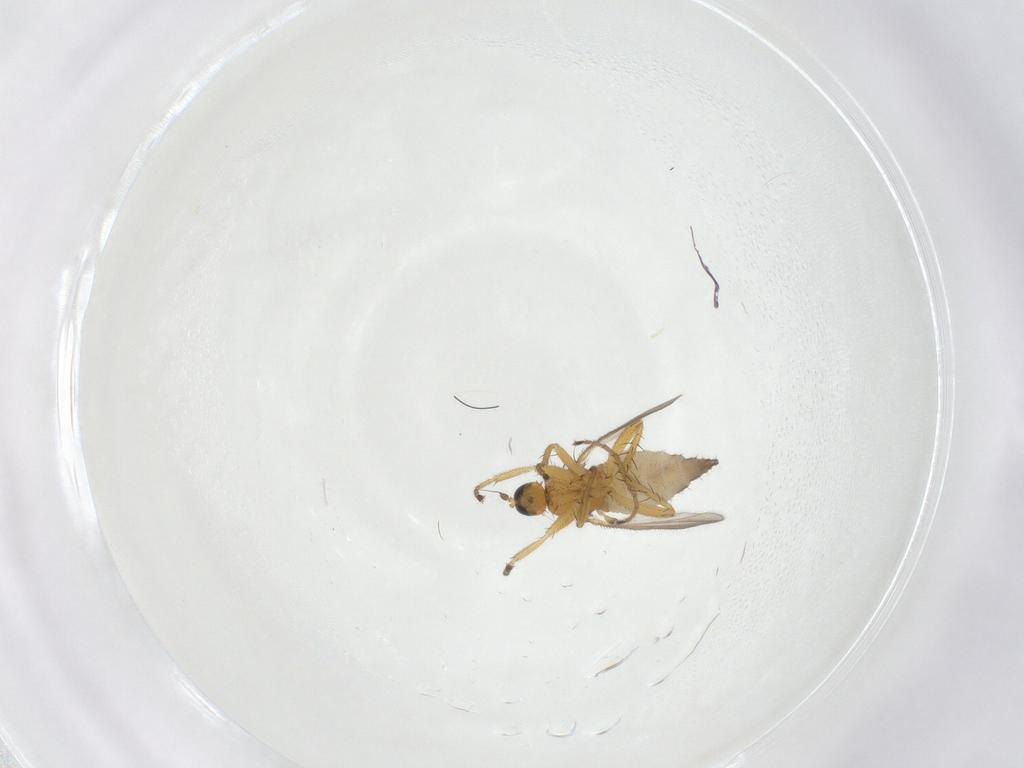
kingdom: Animalia
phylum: Arthropoda
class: Insecta
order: Diptera
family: Hybotidae
